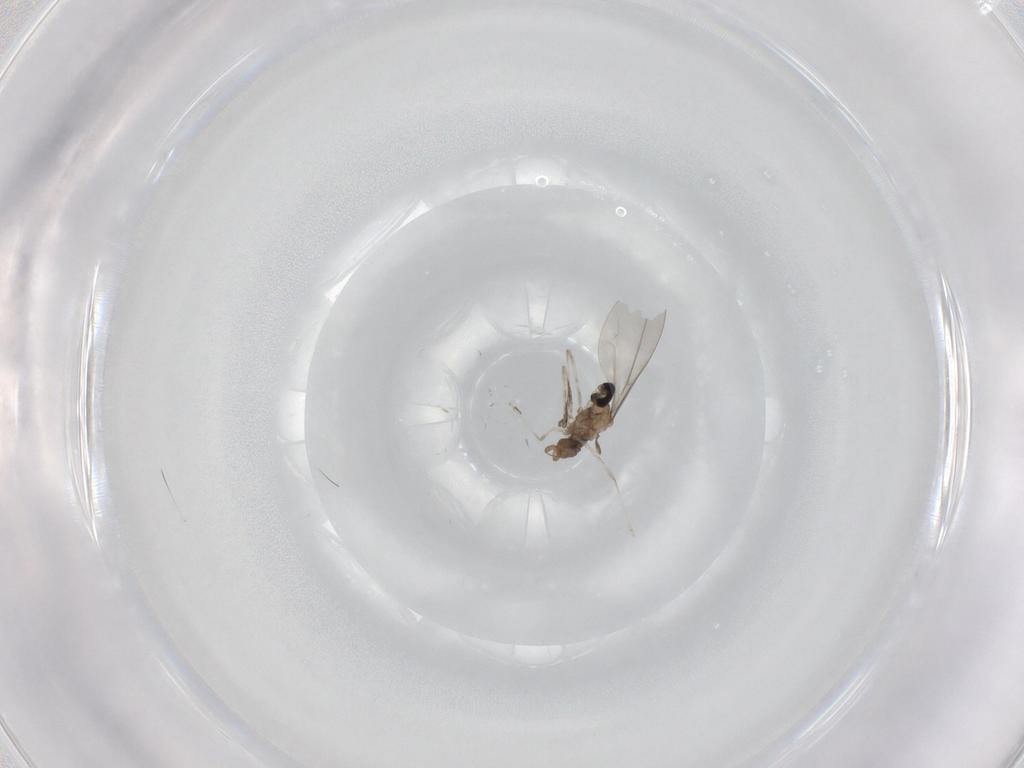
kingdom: Animalia
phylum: Arthropoda
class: Insecta
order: Diptera
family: Cecidomyiidae
